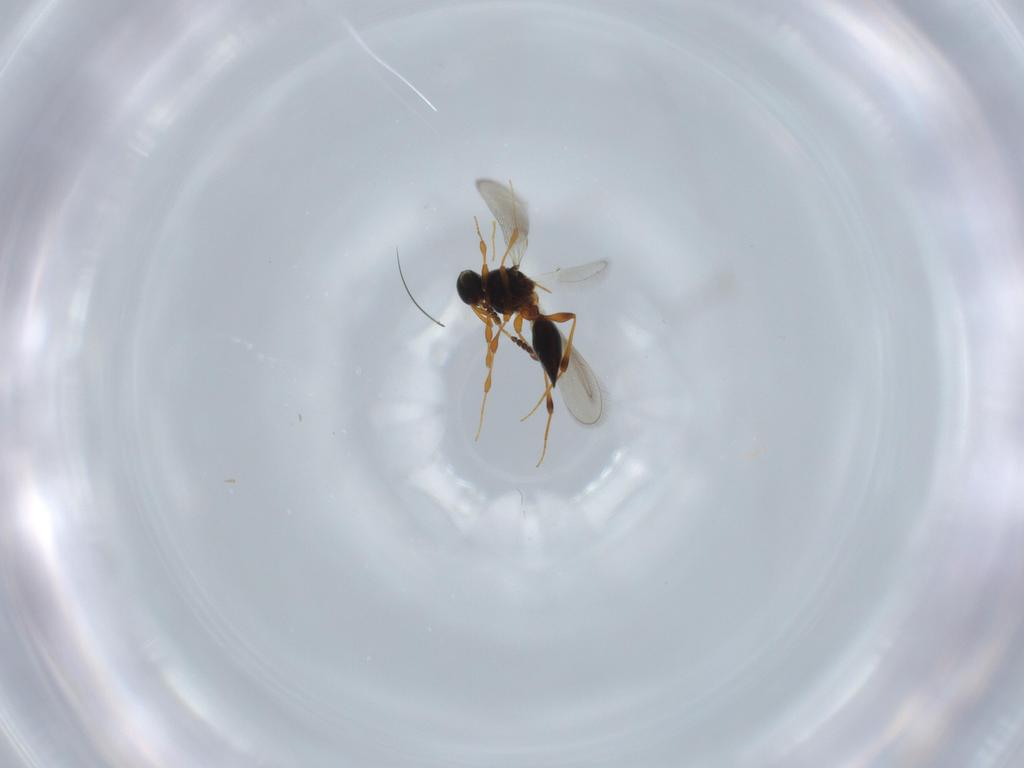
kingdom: Animalia
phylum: Arthropoda
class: Insecta
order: Hymenoptera
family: Platygastridae
